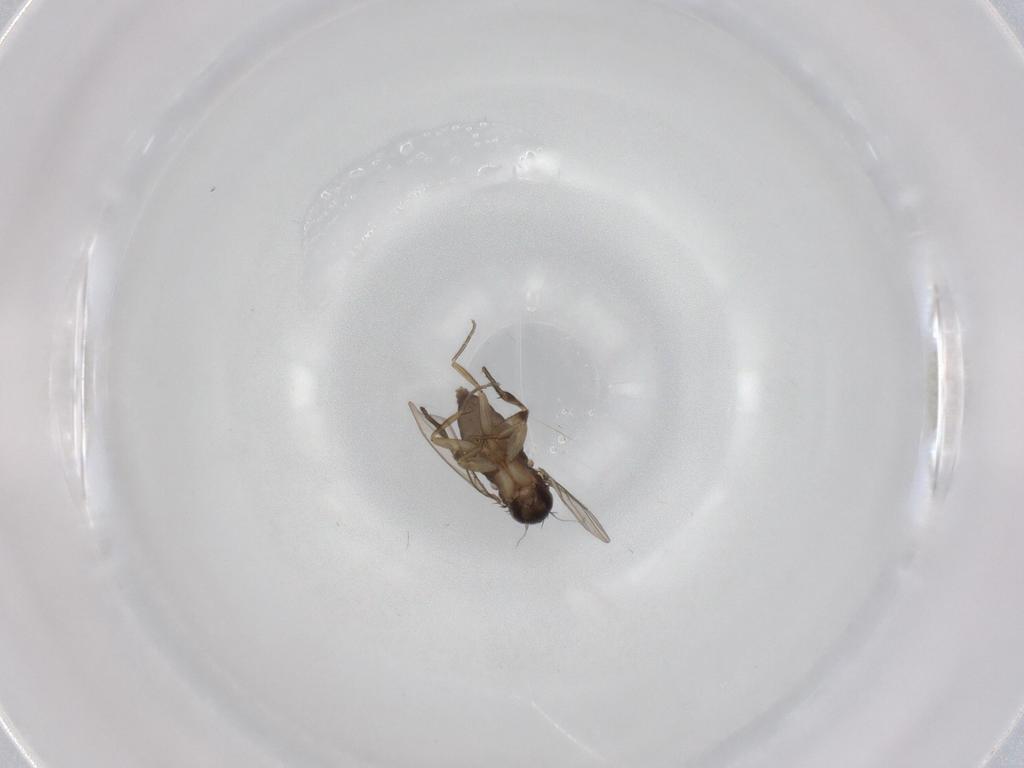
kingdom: Animalia
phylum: Arthropoda
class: Insecta
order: Diptera
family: Phoridae
